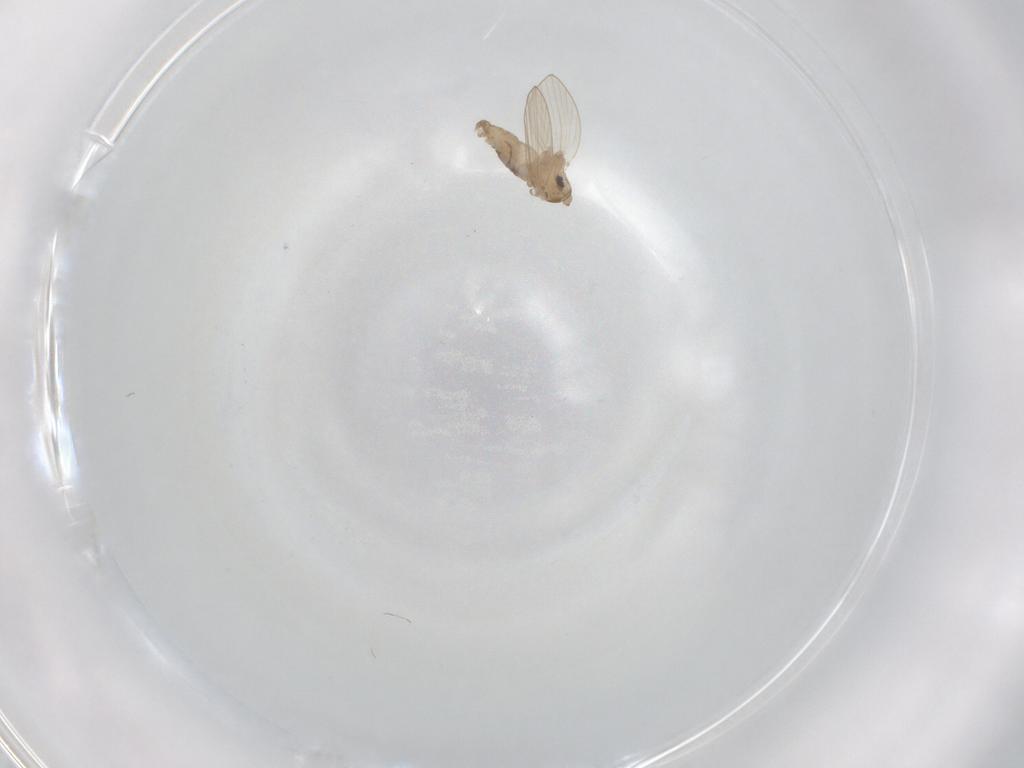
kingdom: Animalia
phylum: Arthropoda
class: Insecta
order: Diptera
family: Psychodidae
